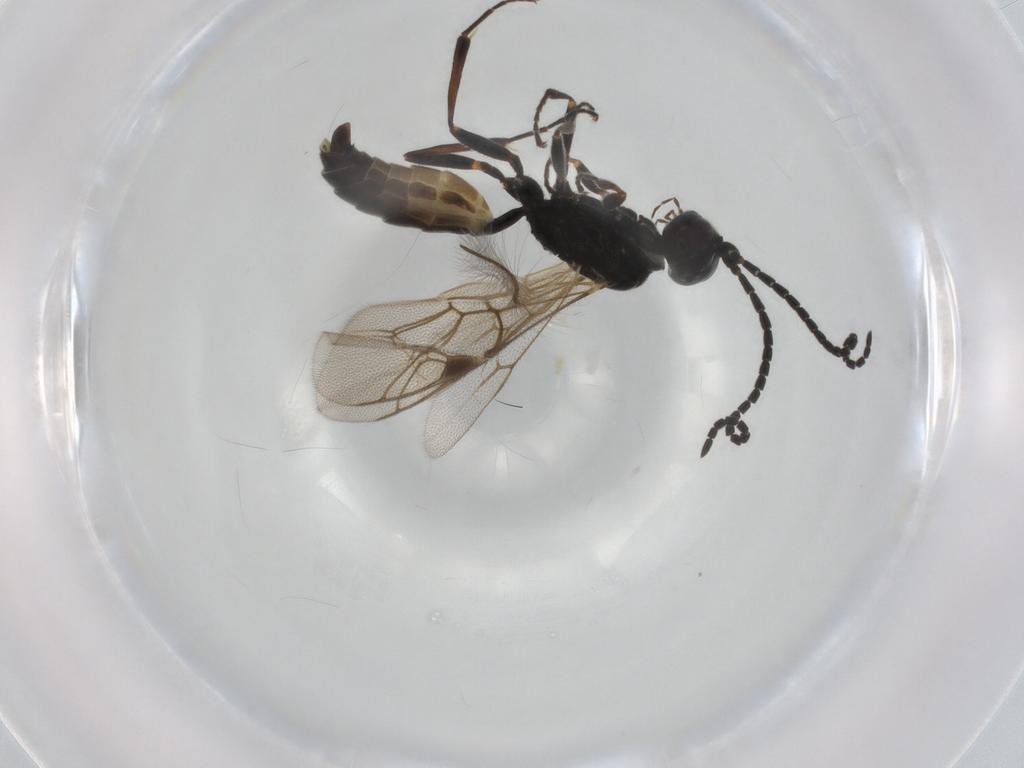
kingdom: Animalia
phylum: Arthropoda
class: Insecta
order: Hymenoptera
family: Ichneumonidae
